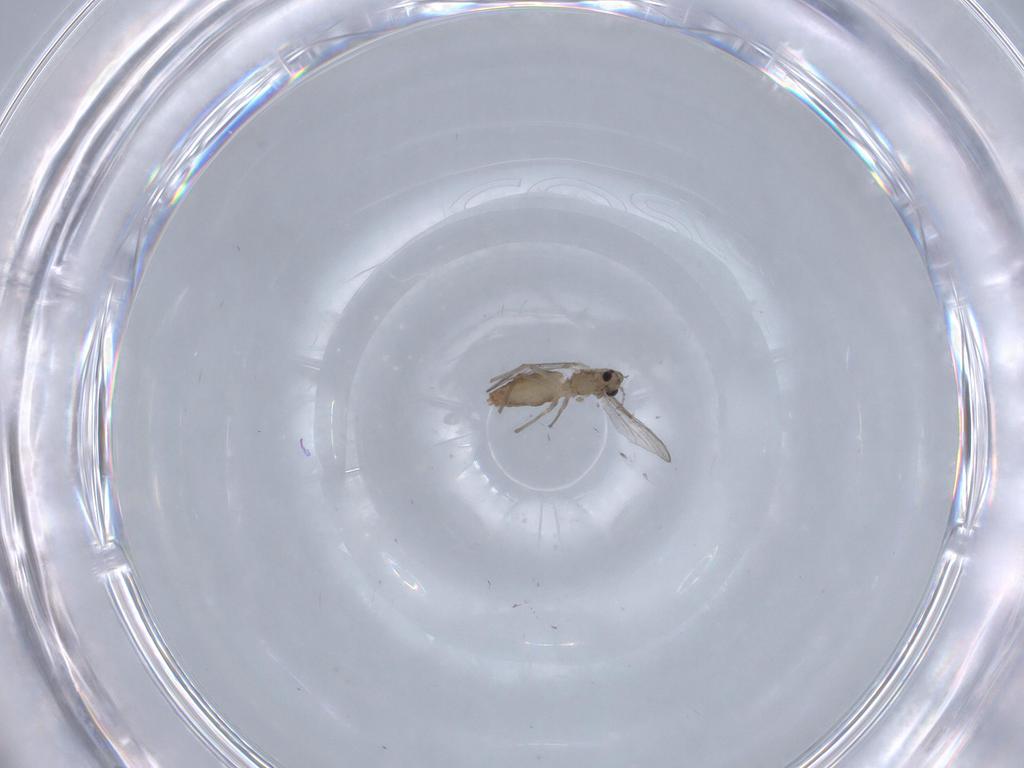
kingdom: Animalia
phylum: Arthropoda
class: Insecta
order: Diptera
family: Chironomidae
